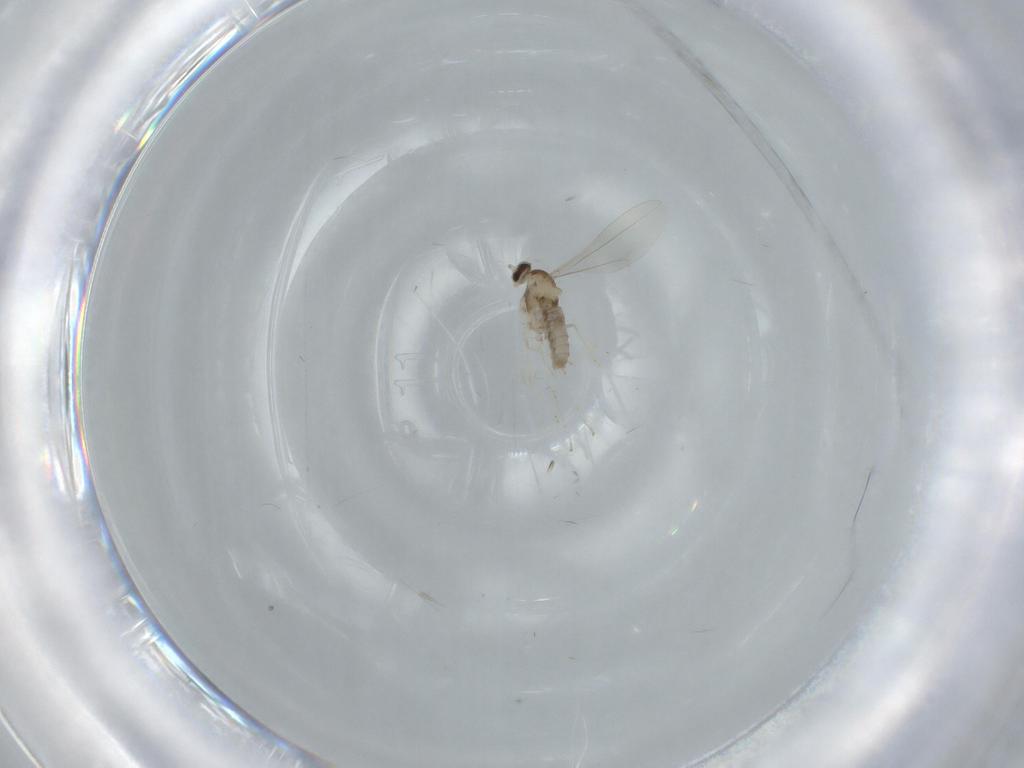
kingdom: Animalia
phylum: Arthropoda
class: Insecta
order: Diptera
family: Cecidomyiidae
